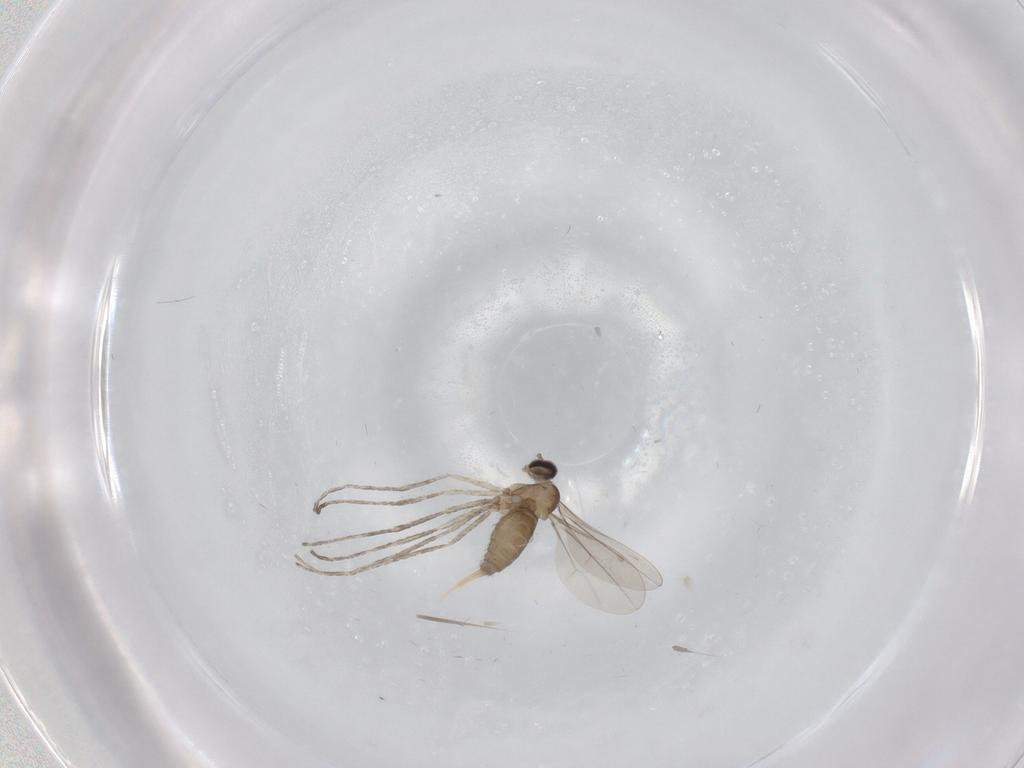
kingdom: Animalia
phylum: Arthropoda
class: Insecta
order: Diptera
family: Cecidomyiidae
